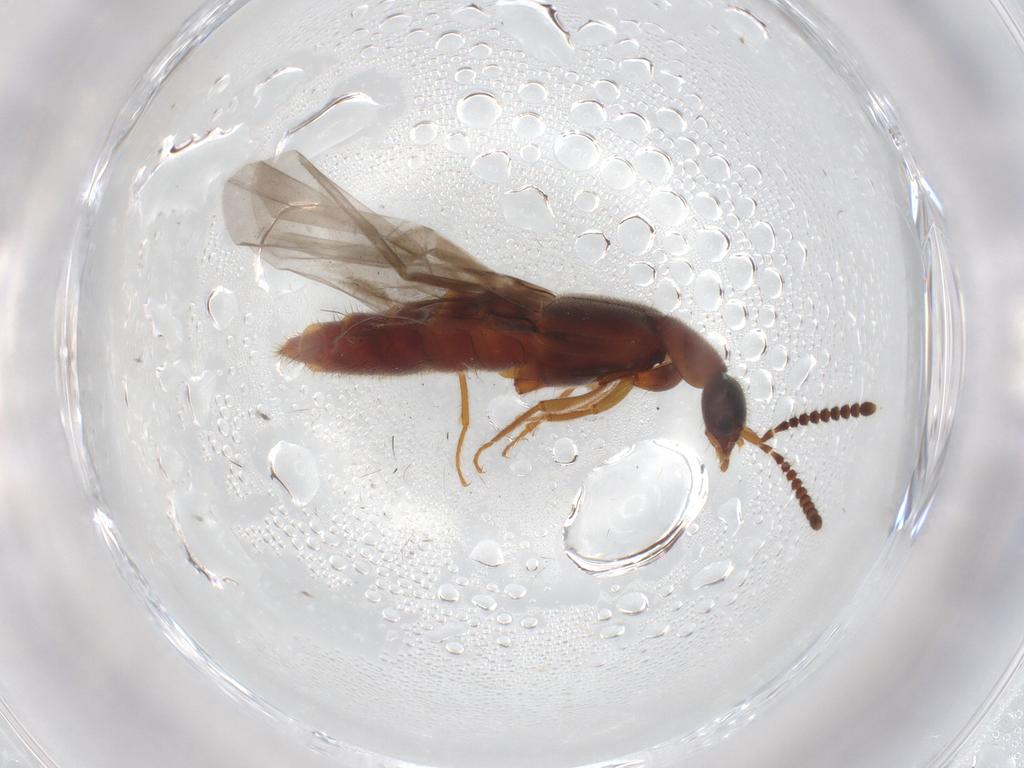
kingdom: Animalia
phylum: Arthropoda
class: Insecta
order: Coleoptera
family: Staphylinidae
